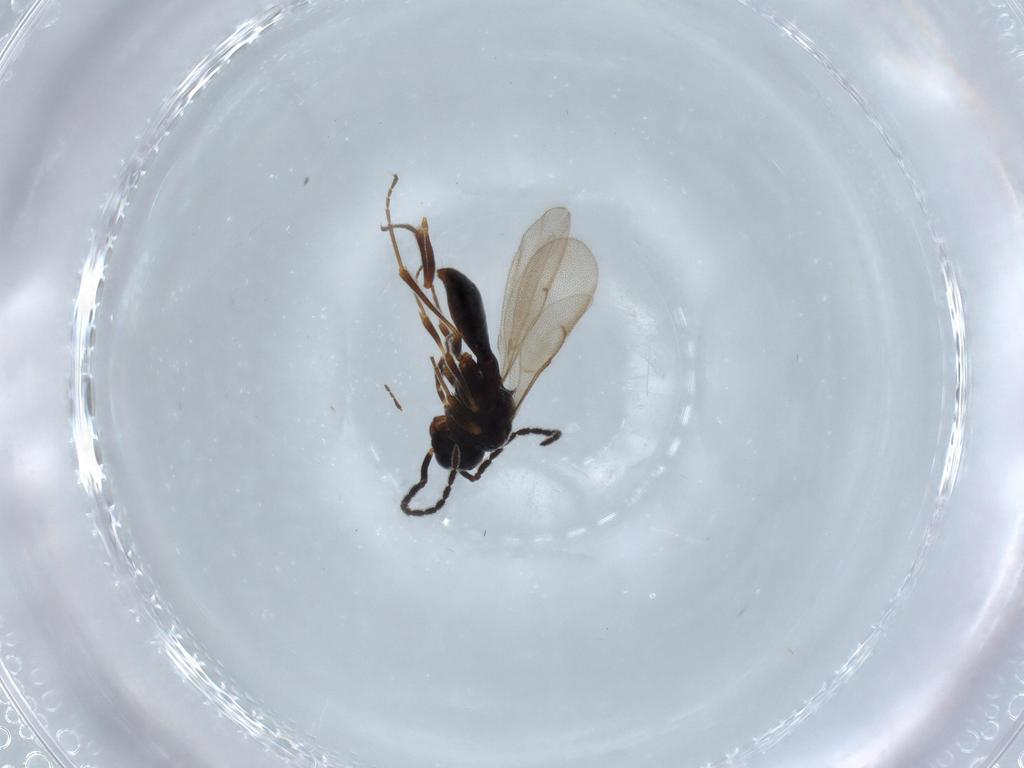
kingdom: Animalia
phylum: Arthropoda
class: Insecta
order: Hymenoptera
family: Scelionidae
